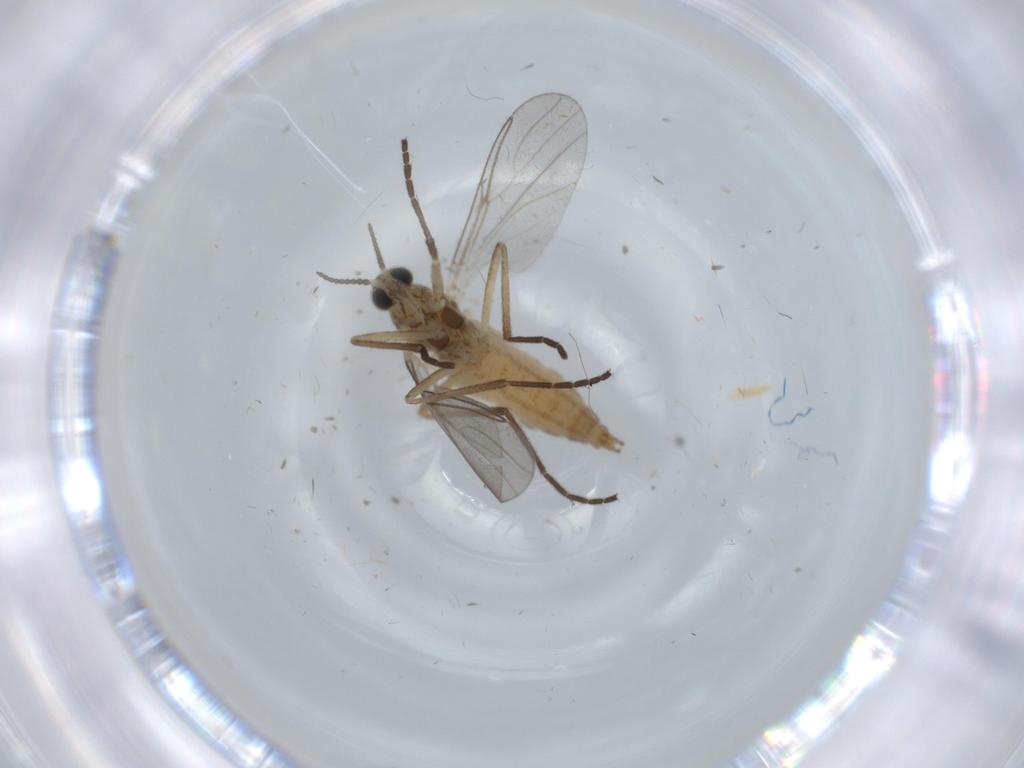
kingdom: Animalia
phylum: Arthropoda
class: Insecta
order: Diptera
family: Cecidomyiidae
